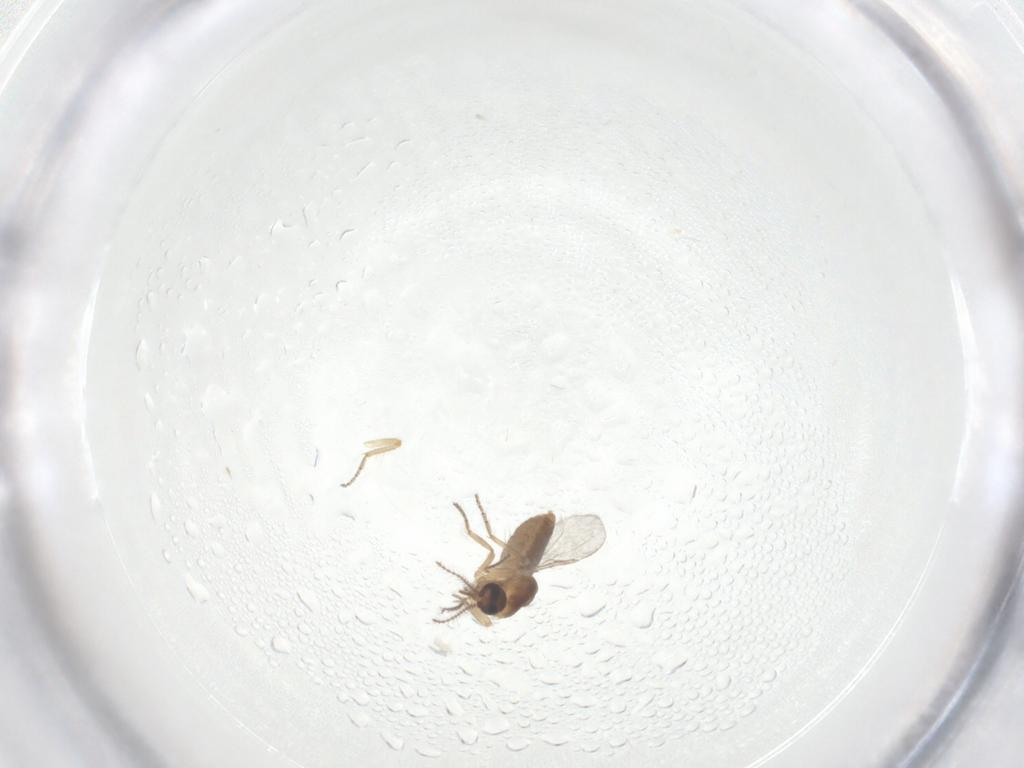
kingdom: Animalia
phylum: Arthropoda
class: Insecta
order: Diptera
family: Ceratopogonidae
